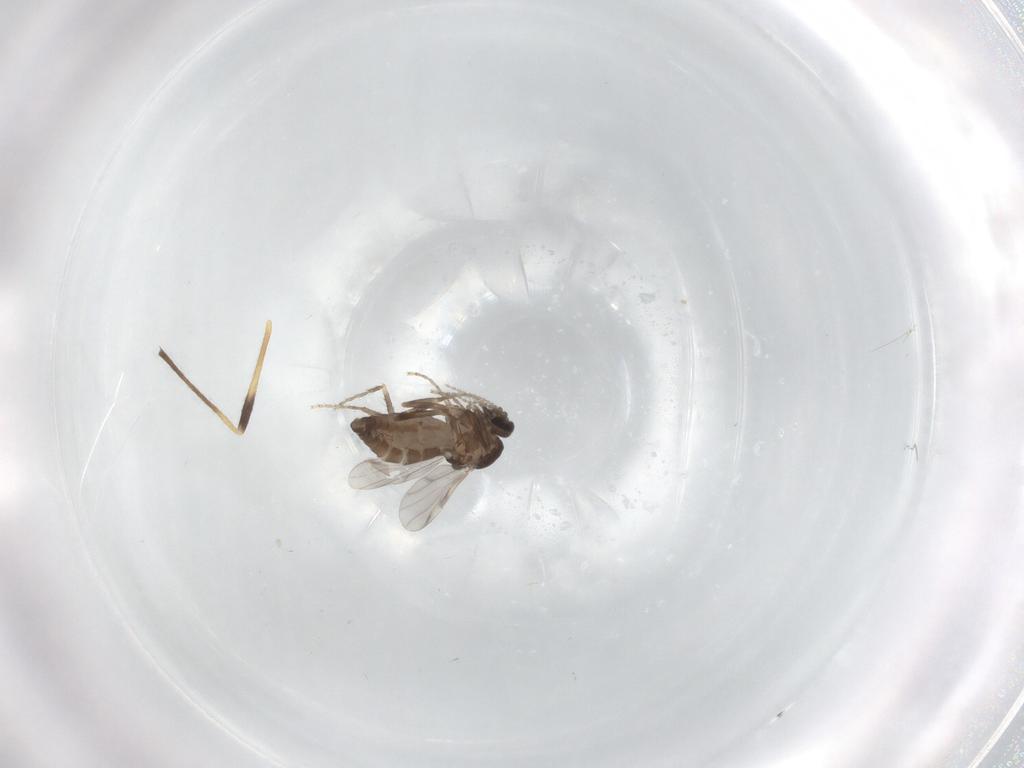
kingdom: Animalia
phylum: Arthropoda
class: Insecta
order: Diptera
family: Ceratopogonidae
